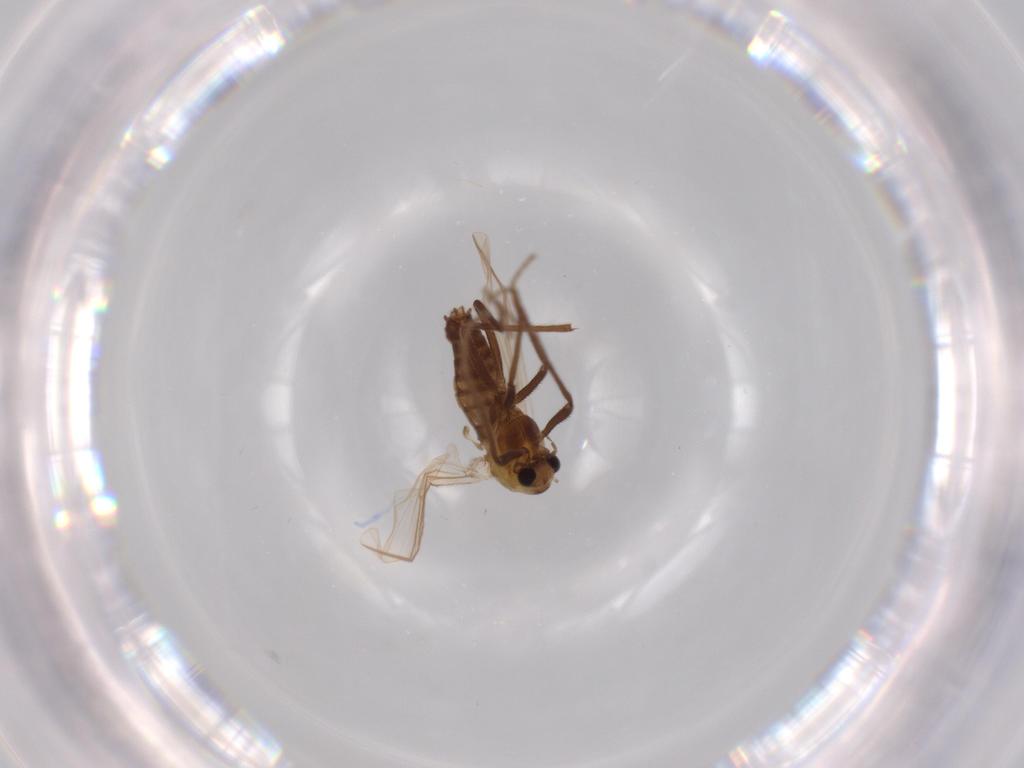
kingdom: Animalia
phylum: Arthropoda
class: Insecta
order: Diptera
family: Chironomidae
